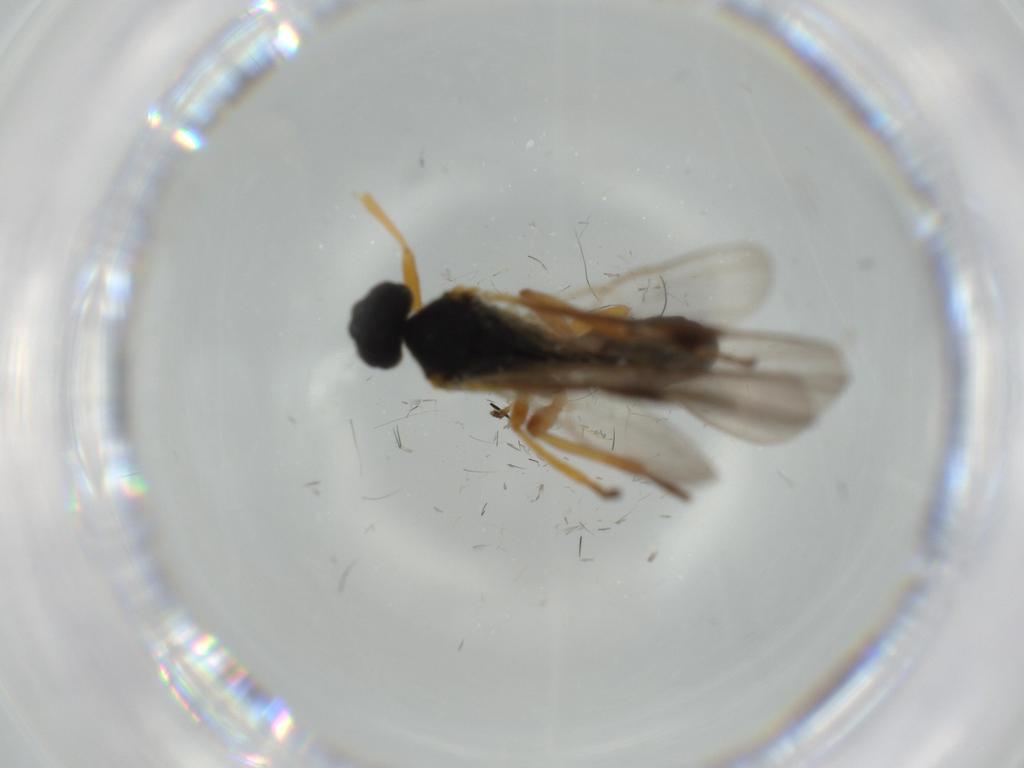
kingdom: Animalia
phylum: Arthropoda
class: Insecta
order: Hymenoptera
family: Braconidae
